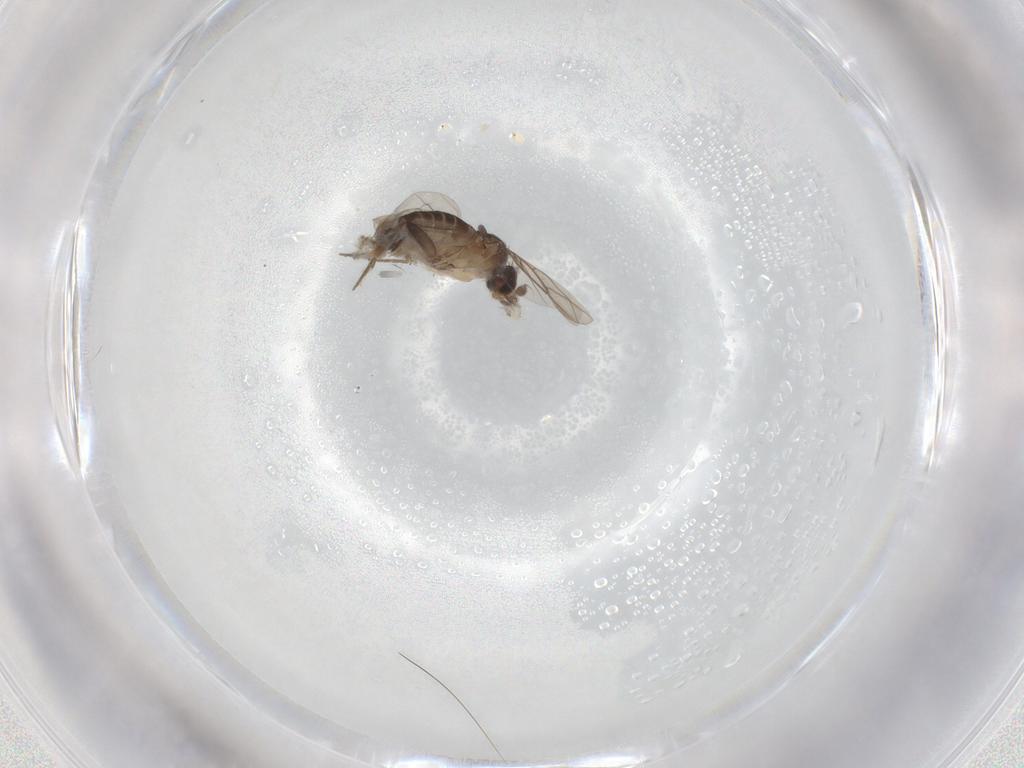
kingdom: Animalia
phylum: Arthropoda
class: Insecta
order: Diptera
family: Phoridae
